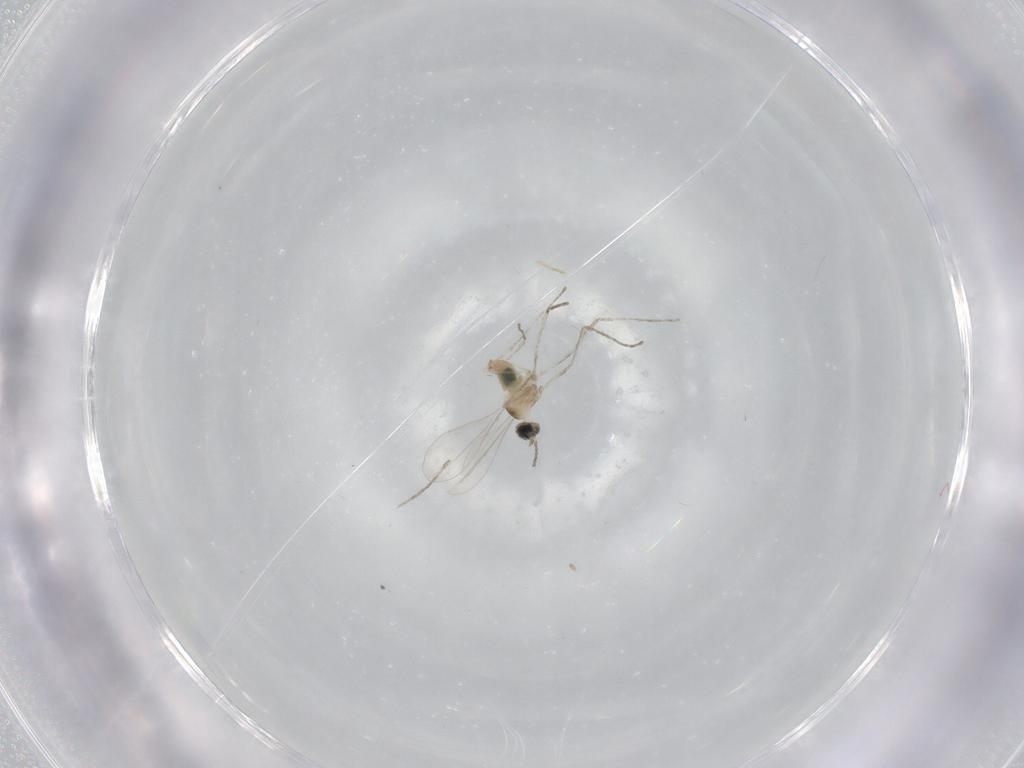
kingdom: Animalia
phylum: Arthropoda
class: Insecta
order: Diptera
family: Cecidomyiidae
